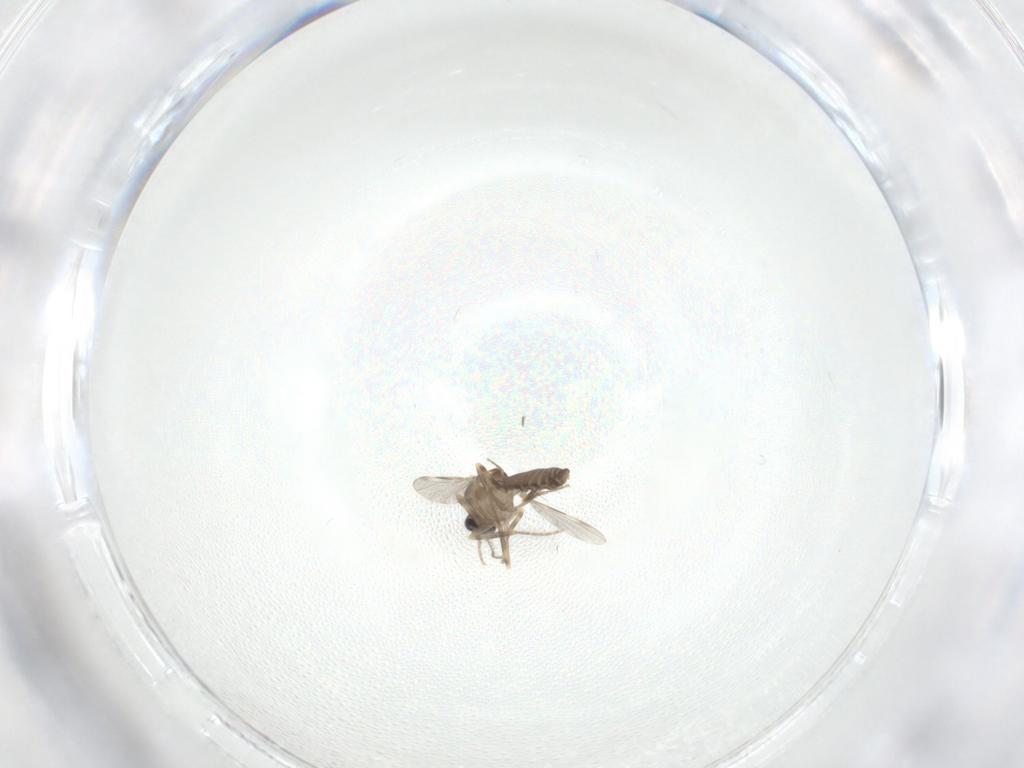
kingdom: Animalia
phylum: Arthropoda
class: Insecta
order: Diptera
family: Ceratopogonidae
